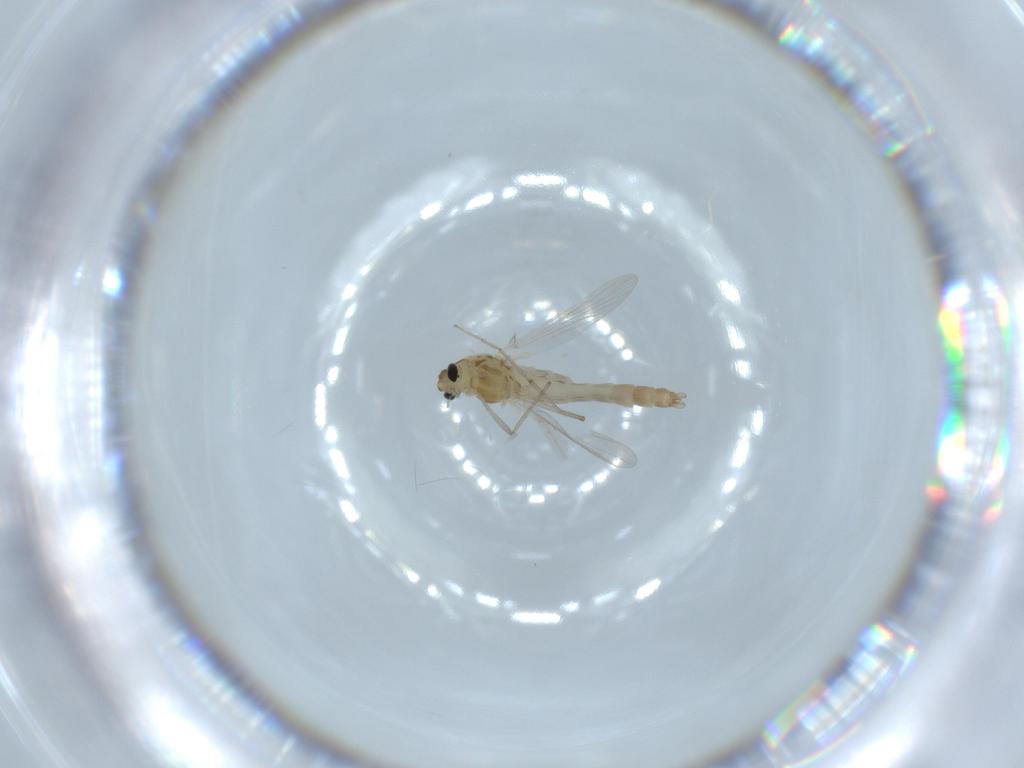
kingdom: Animalia
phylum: Arthropoda
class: Insecta
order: Diptera
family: Chironomidae
